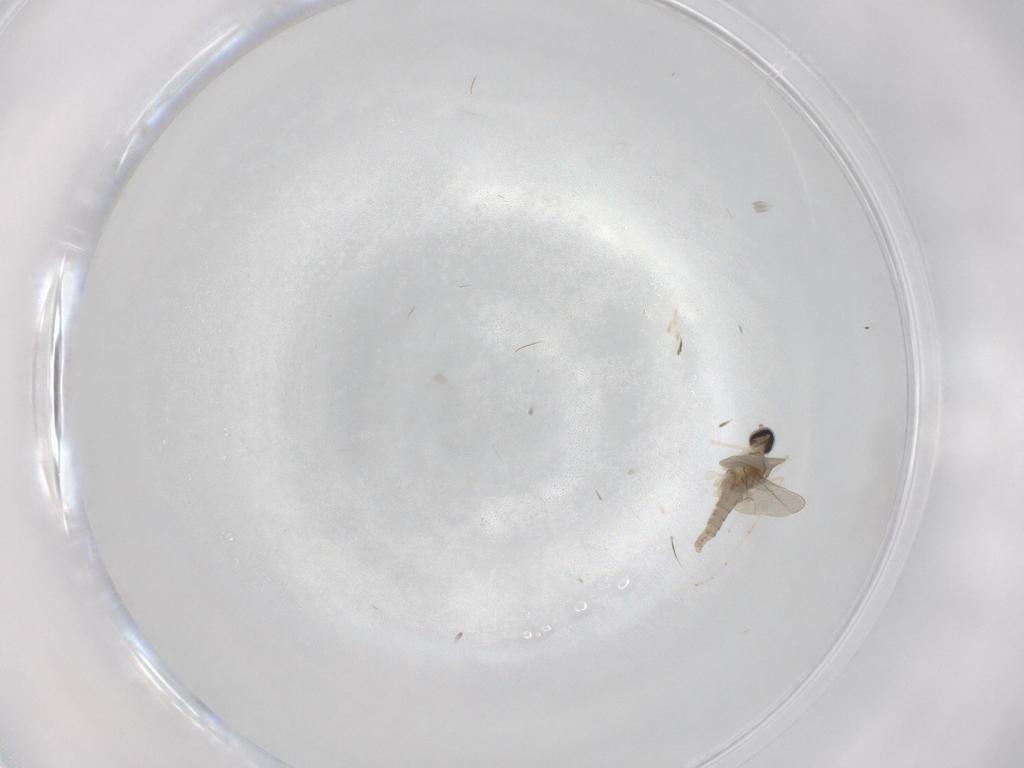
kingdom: Animalia
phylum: Arthropoda
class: Insecta
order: Diptera
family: Cecidomyiidae
